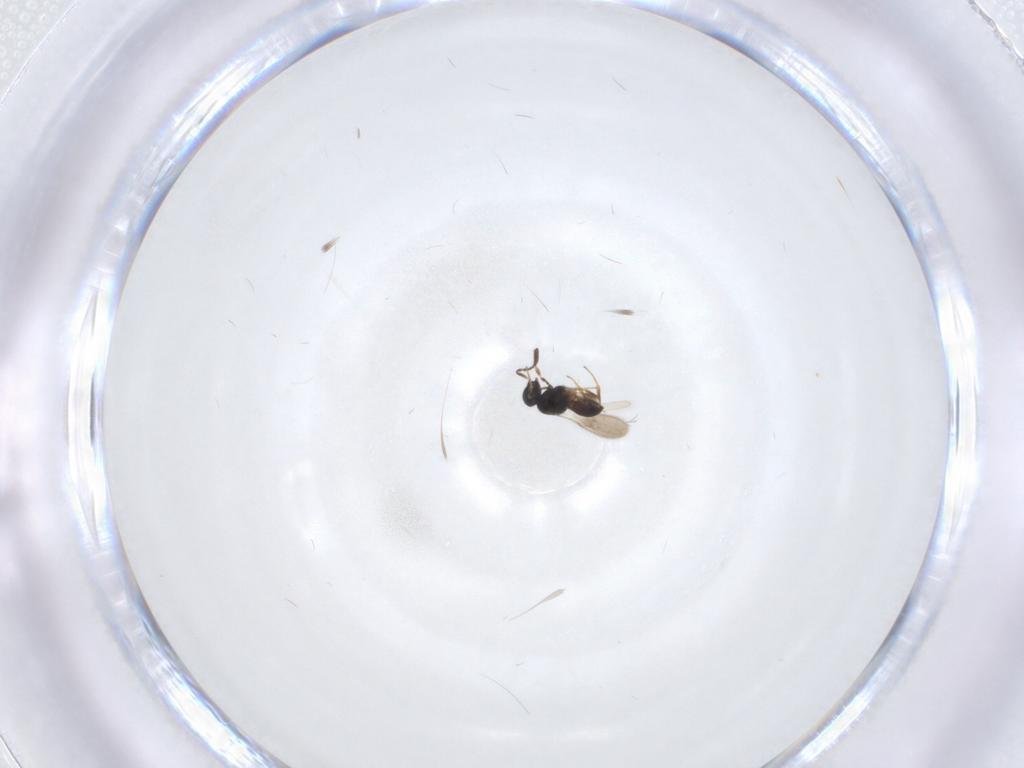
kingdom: Animalia
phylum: Arthropoda
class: Insecta
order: Hymenoptera
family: Scelionidae
